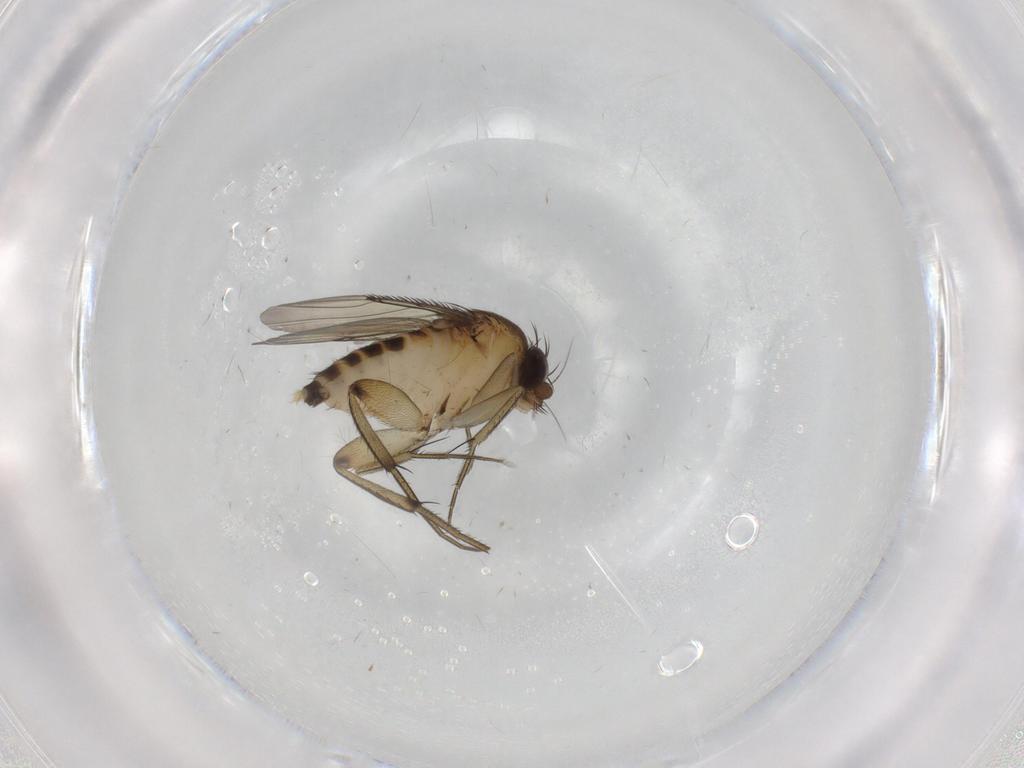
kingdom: Animalia
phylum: Arthropoda
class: Insecta
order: Diptera
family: Phoridae
